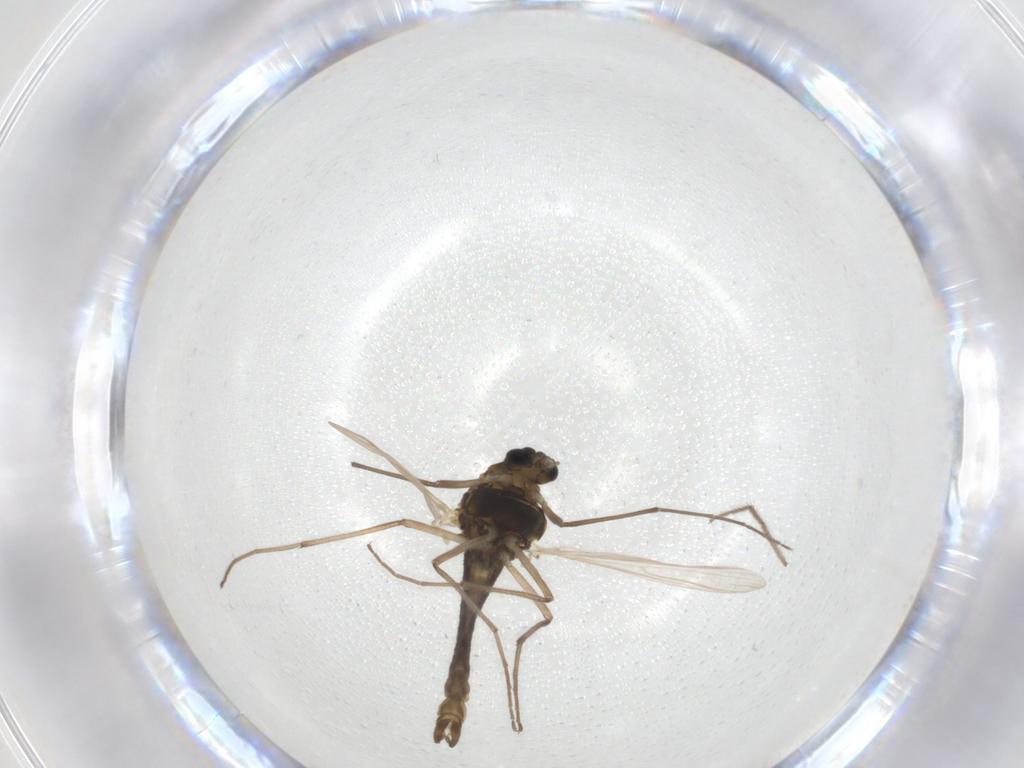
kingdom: Animalia
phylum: Arthropoda
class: Insecta
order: Diptera
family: Chironomidae
